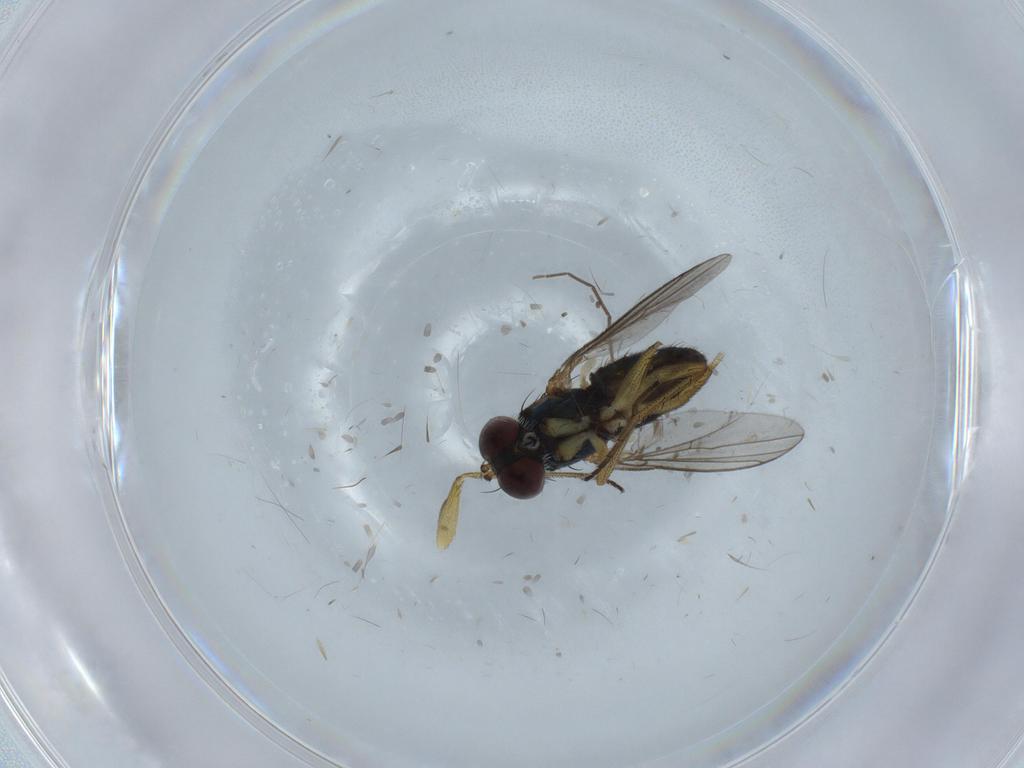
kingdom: Animalia
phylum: Arthropoda
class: Insecta
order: Diptera
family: Chironomidae
